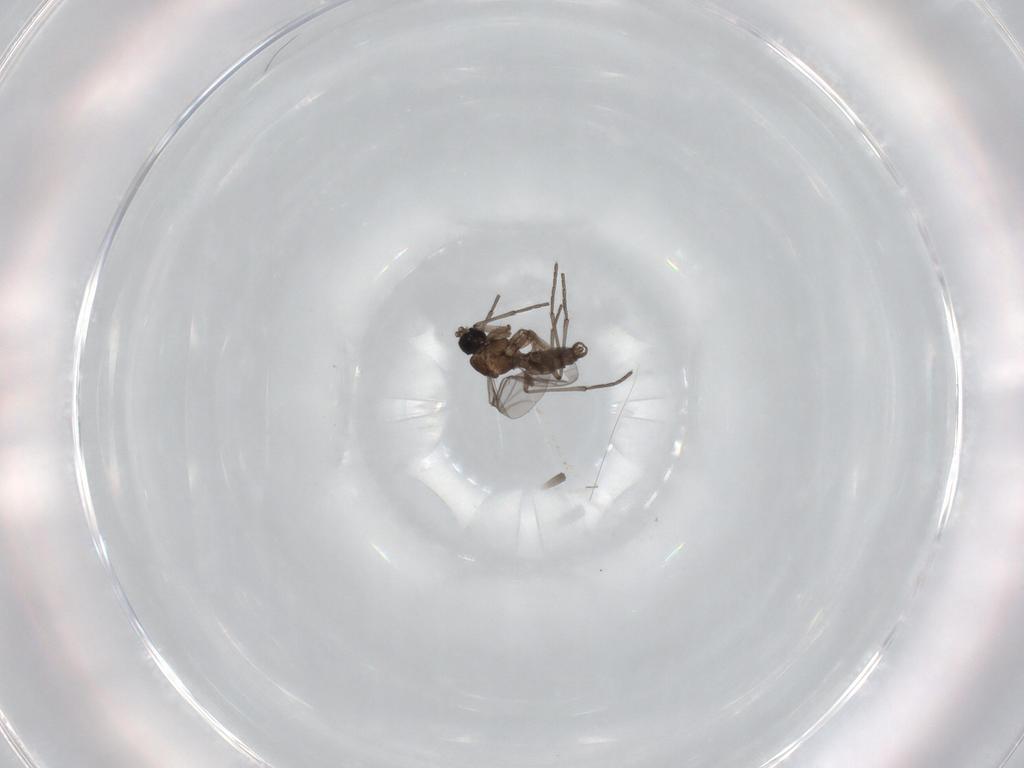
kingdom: Animalia
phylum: Arthropoda
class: Insecta
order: Diptera
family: Sciaridae
